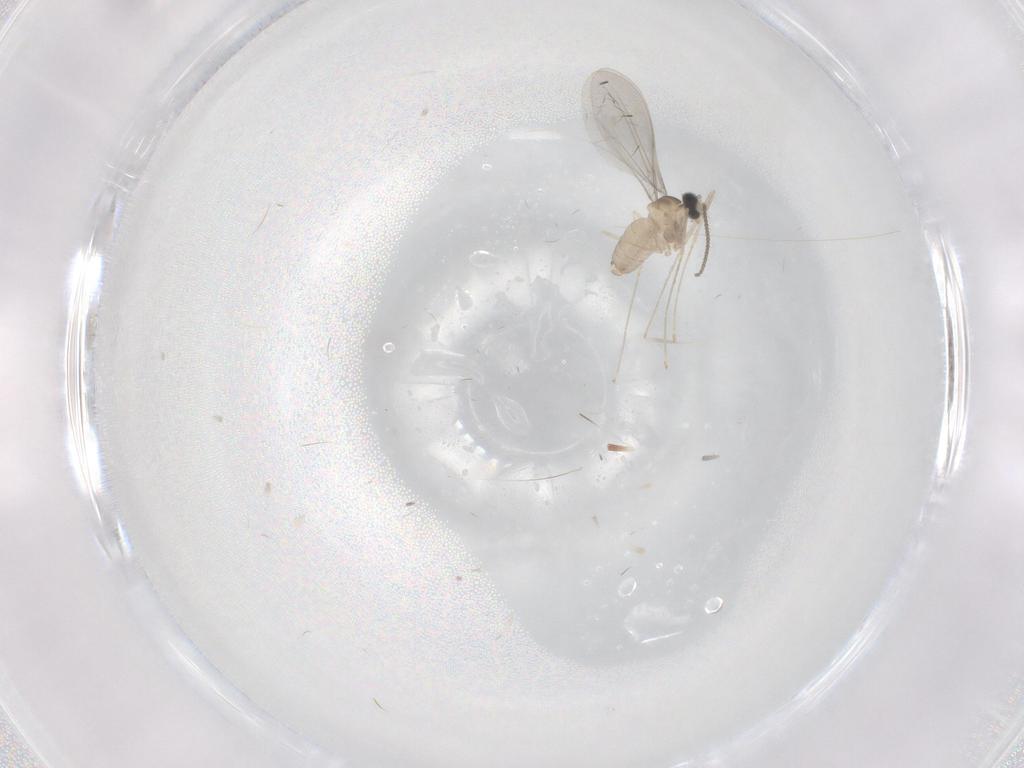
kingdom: Animalia
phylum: Arthropoda
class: Insecta
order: Diptera
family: Cecidomyiidae
